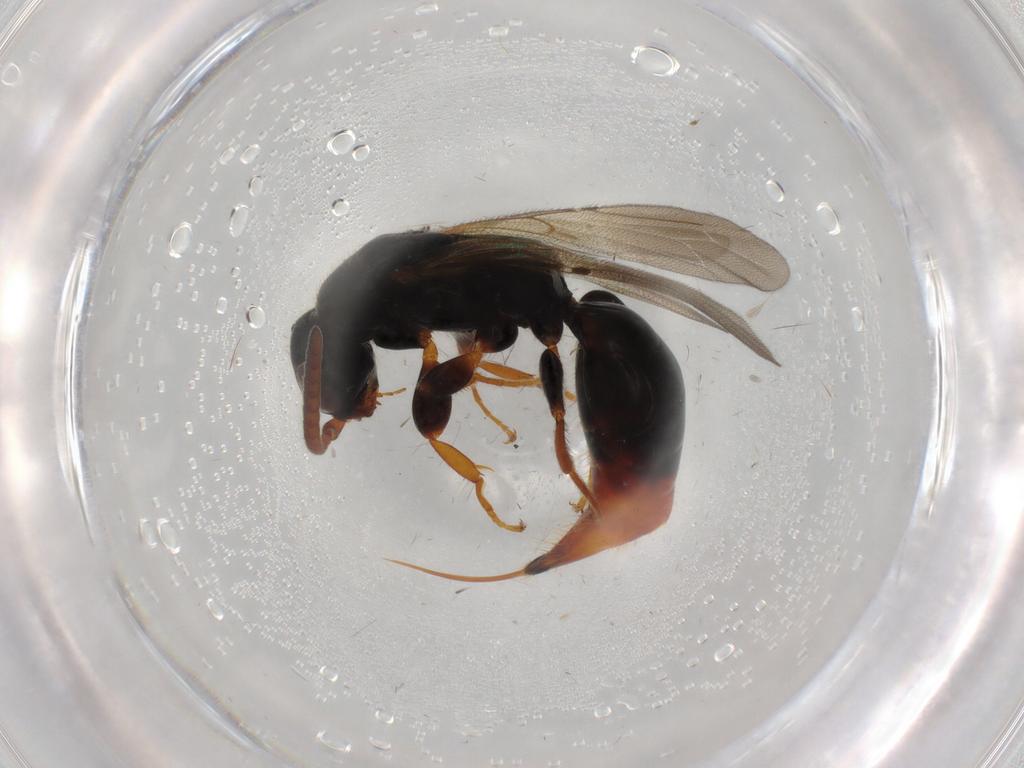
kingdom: Animalia
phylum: Arthropoda
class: Insecta
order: Hymenoptera
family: Bethylidae
